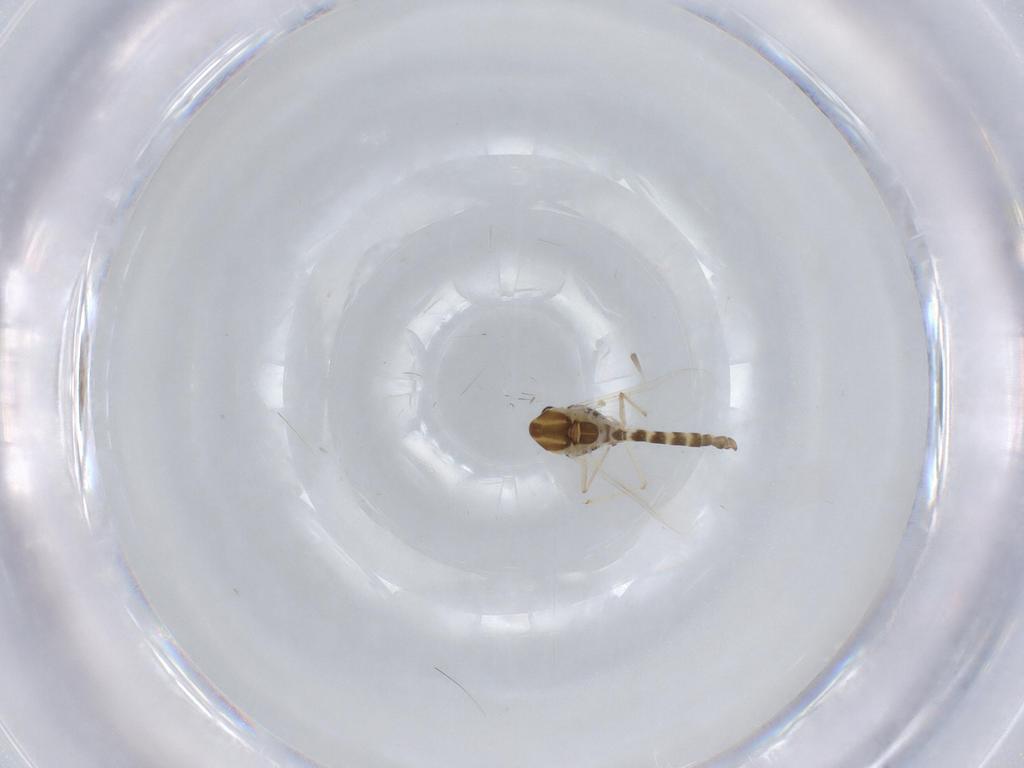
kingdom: Animalia
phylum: Arthropoda
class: Insecta
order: Diptera
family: Chironomidae
